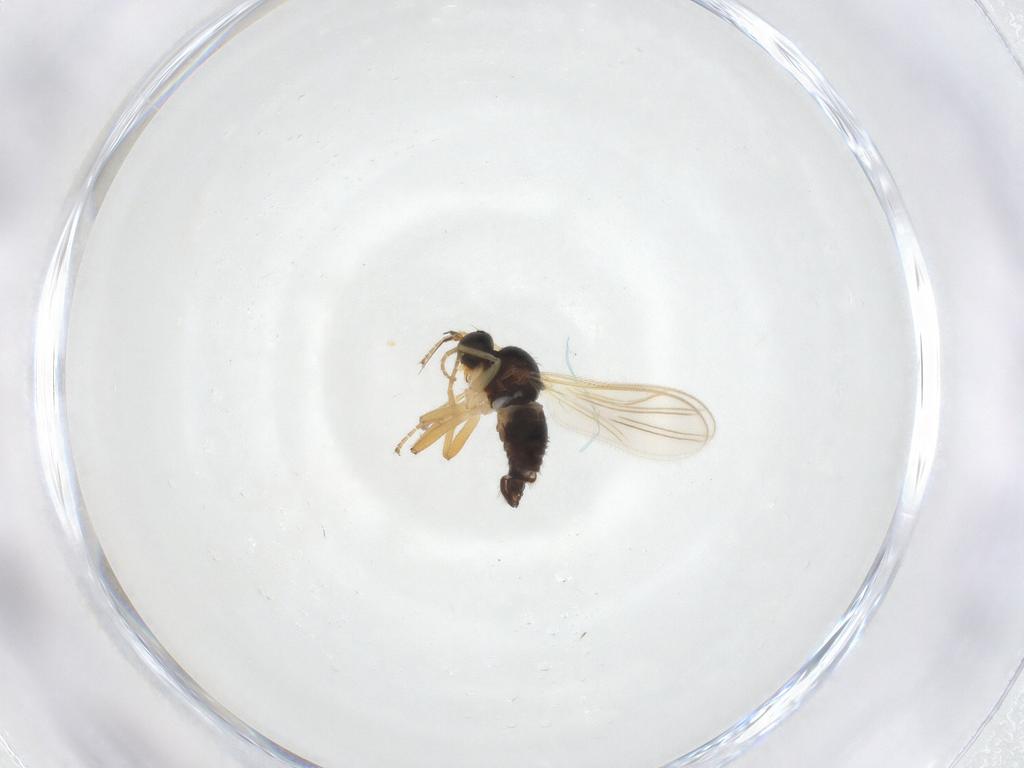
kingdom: Animalia
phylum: Arthropoda
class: Insecta
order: Diptera
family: Hybotidae
